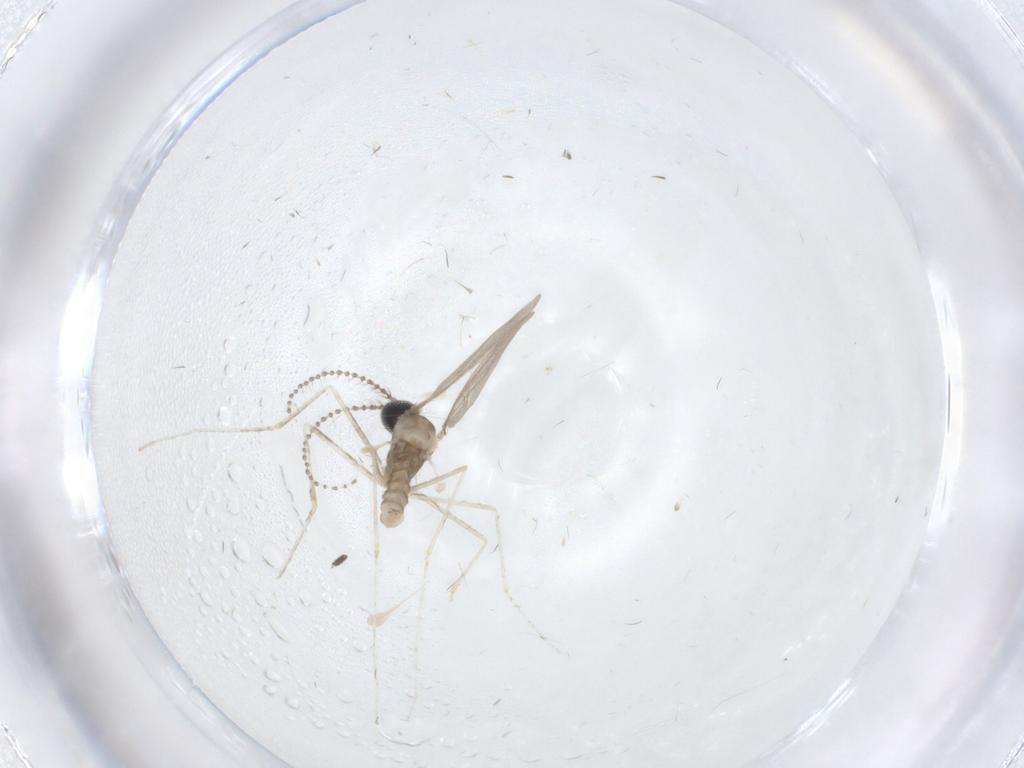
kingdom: Animalia
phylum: Arthropoda
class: Insecta
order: Diptera
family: Cecidomyiidae
